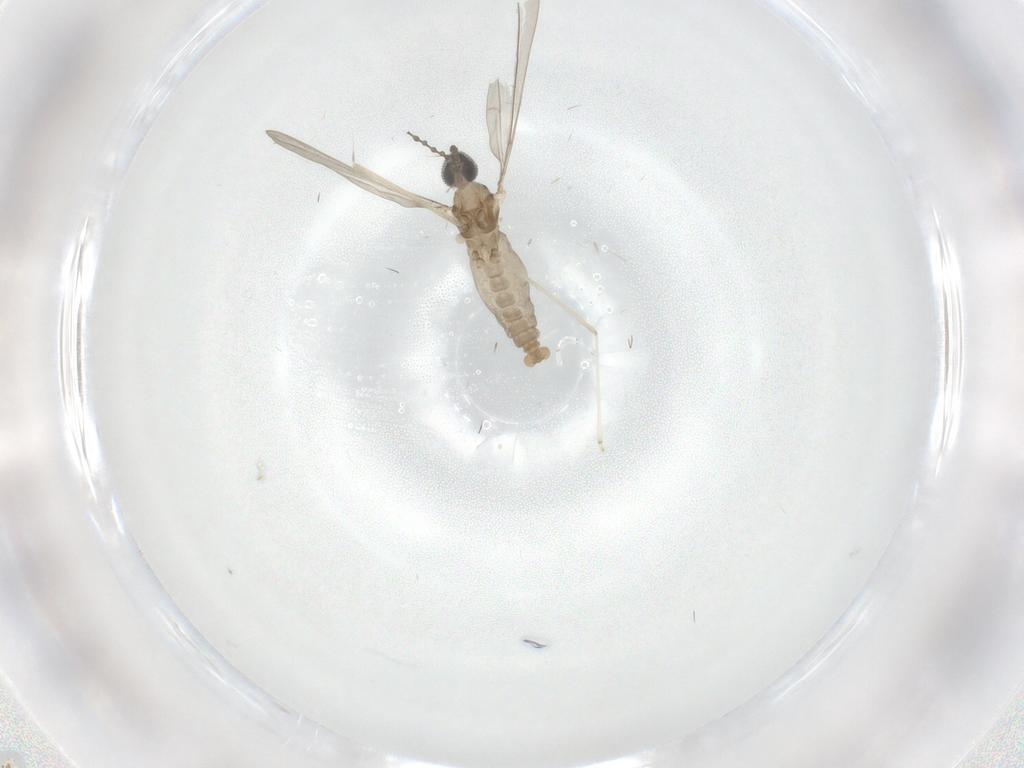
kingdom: Animalia
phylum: Arthropoda
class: Insecta
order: Diptera
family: Cecidomyiidae
